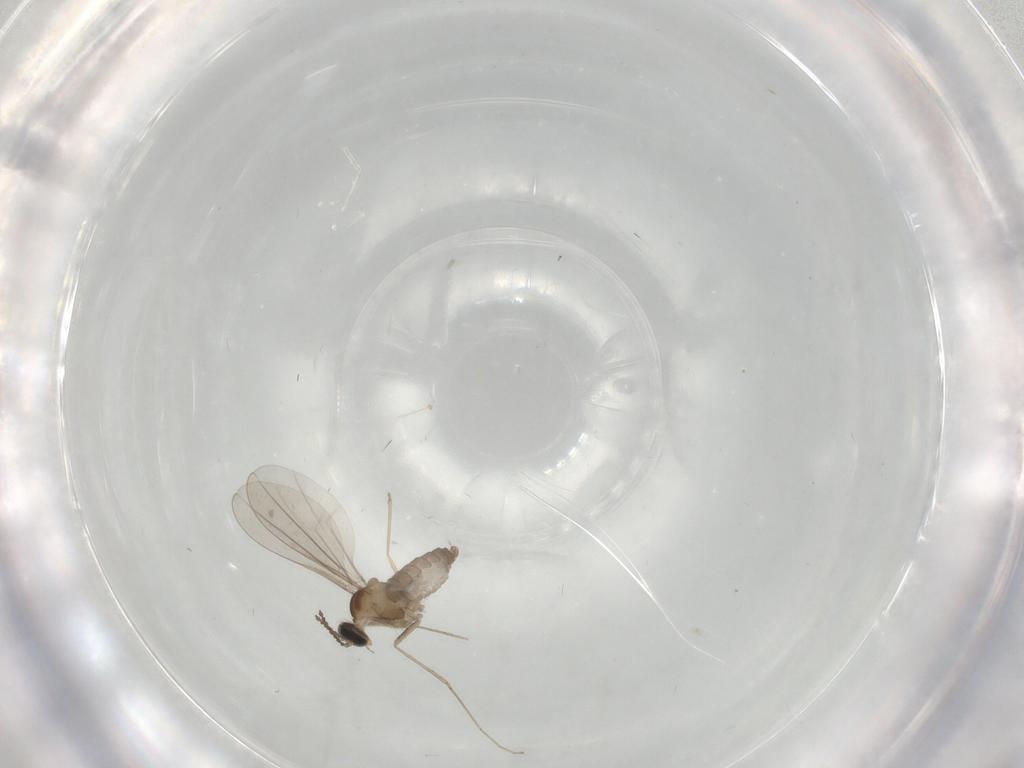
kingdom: Animalia
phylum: Arthropoda
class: Insecta
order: Diptera
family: Cecidomyiidae
